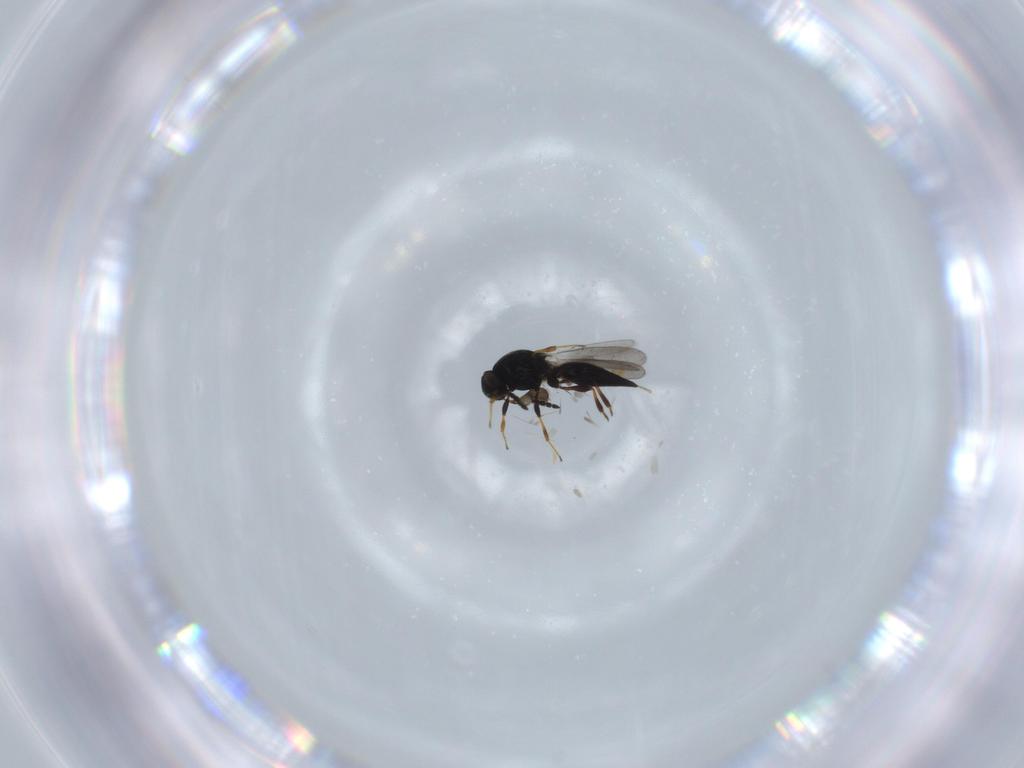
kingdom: Animalia
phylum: Arthropoda
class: Insecta
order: Hymenoptera
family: Platygastridae
